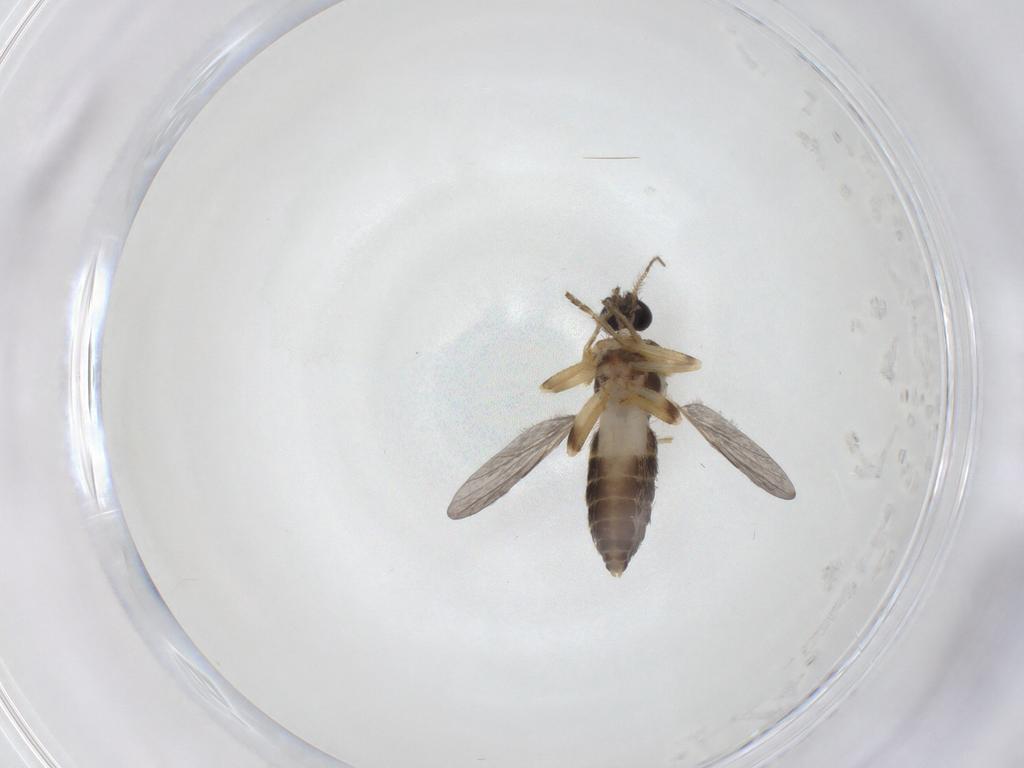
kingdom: Animalia
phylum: Arthropoda
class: Insecta
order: Diptera
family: Ceratopogonidae
